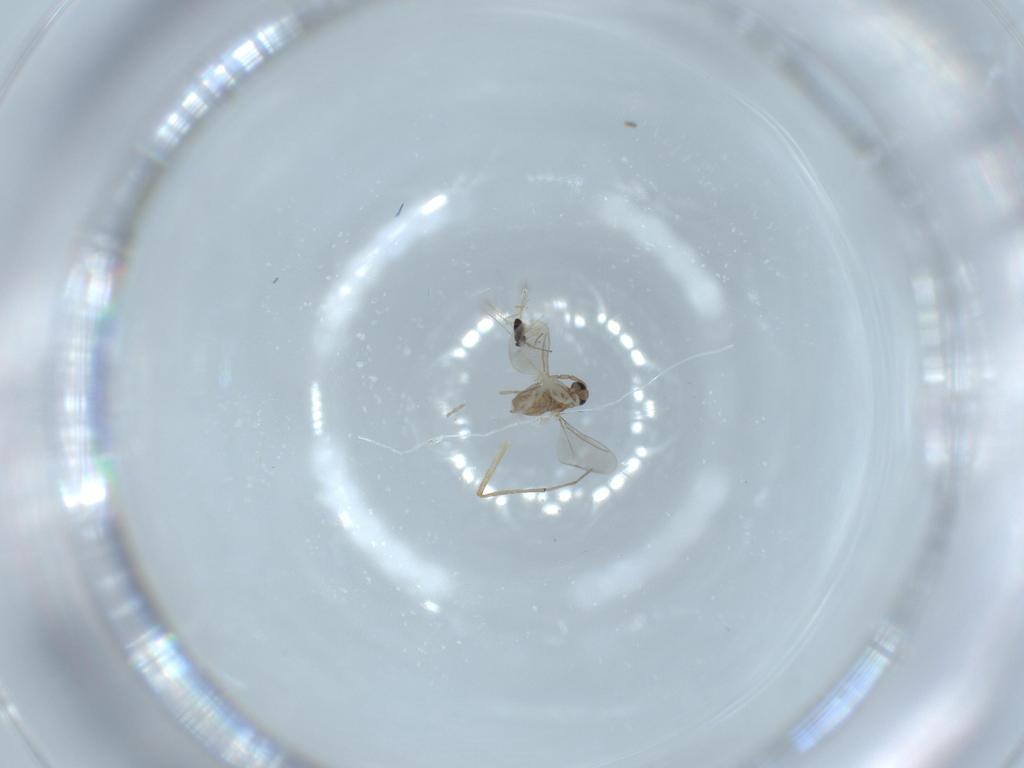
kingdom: Animalia
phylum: Arthropoda
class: Insecta
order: Diptera
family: Cecidomyiidae
